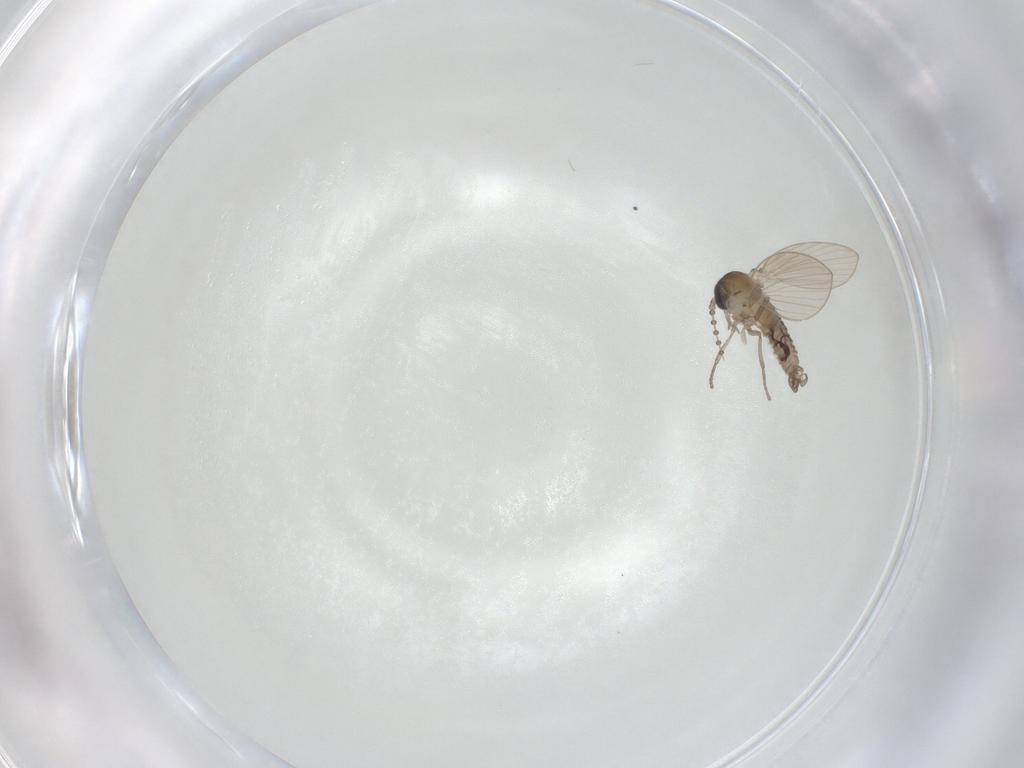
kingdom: Animalia
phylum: Arthropoda
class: Insecta
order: Diptera
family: Psychodidae
